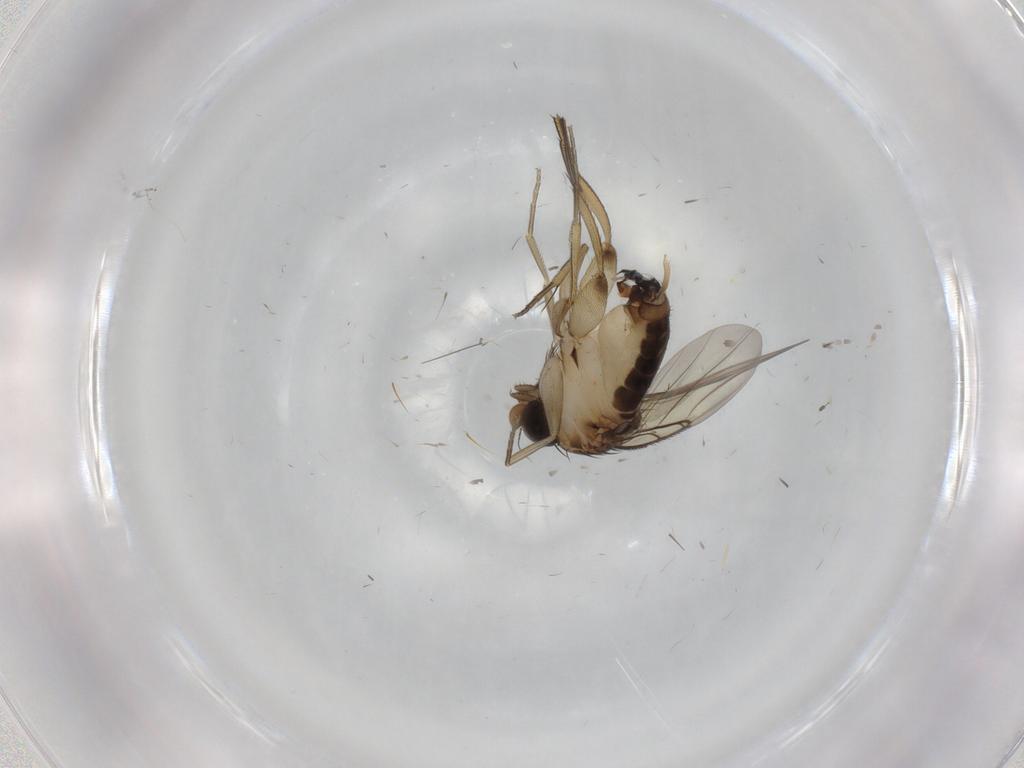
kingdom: Animalia
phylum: Arthropoda
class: Insecta
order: Diptera
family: Phoridae
